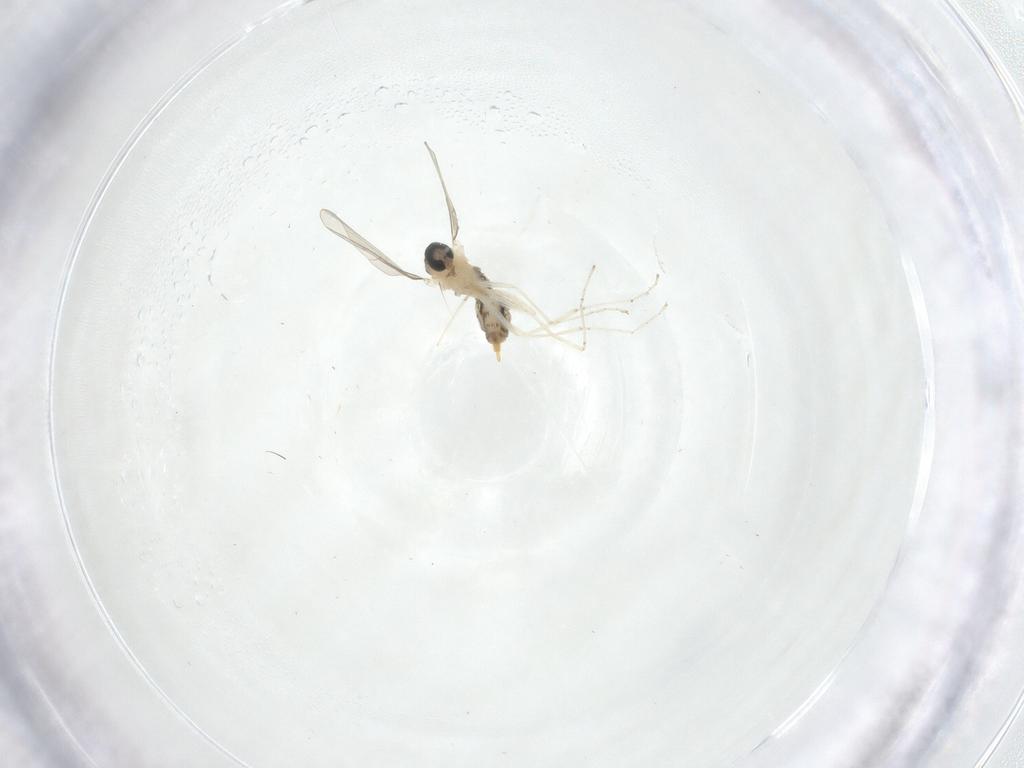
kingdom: Animalia
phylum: Arthropoda
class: Insecta
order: Diptera
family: Cecidomyiidae
